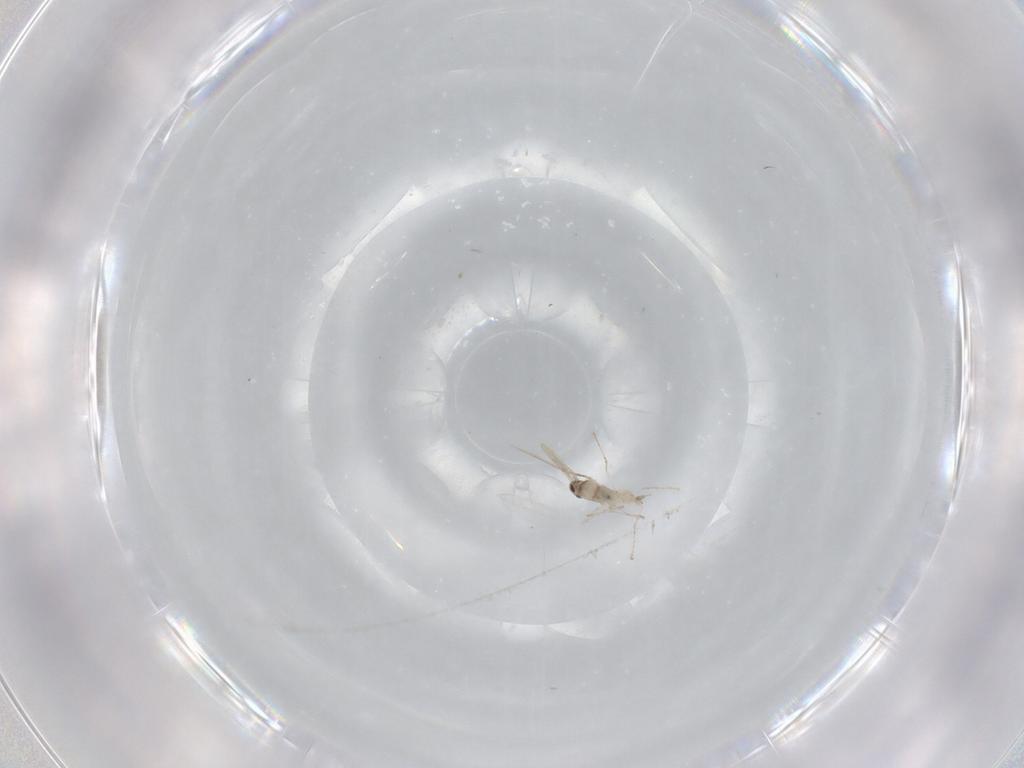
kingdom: Animalia
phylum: Arthropoda
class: Insecta
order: Diptera
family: Cecidomyiidae
